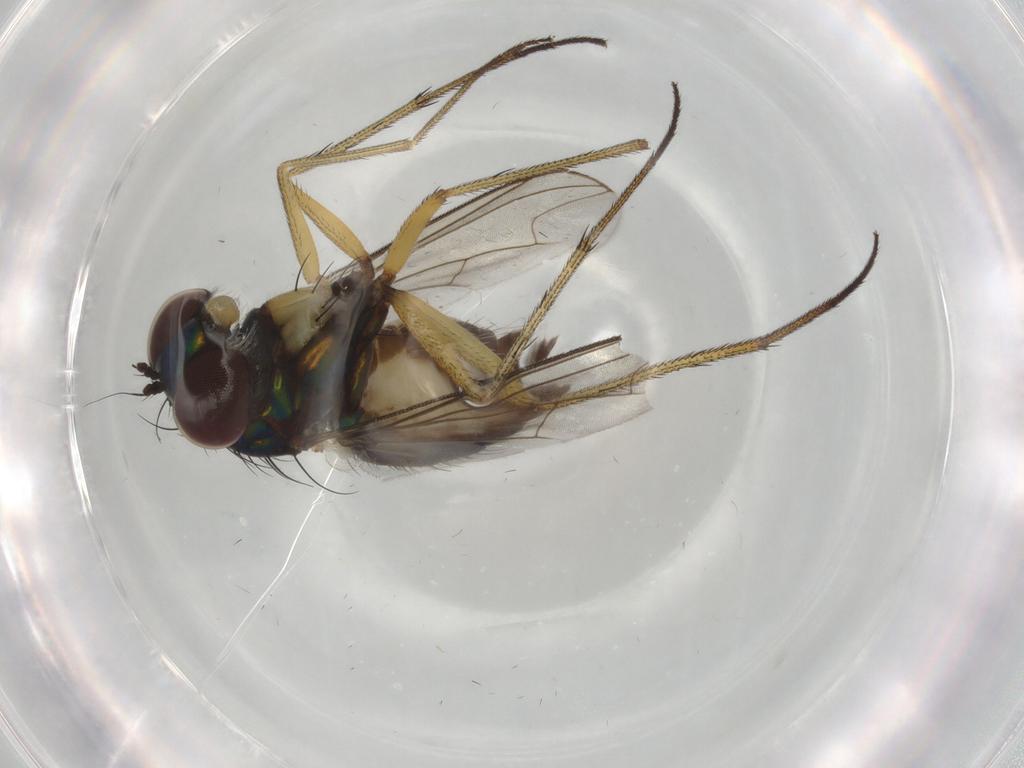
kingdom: Animalia
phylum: Arthropoda
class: Insecta
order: Diptera
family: Dolichopodidae
